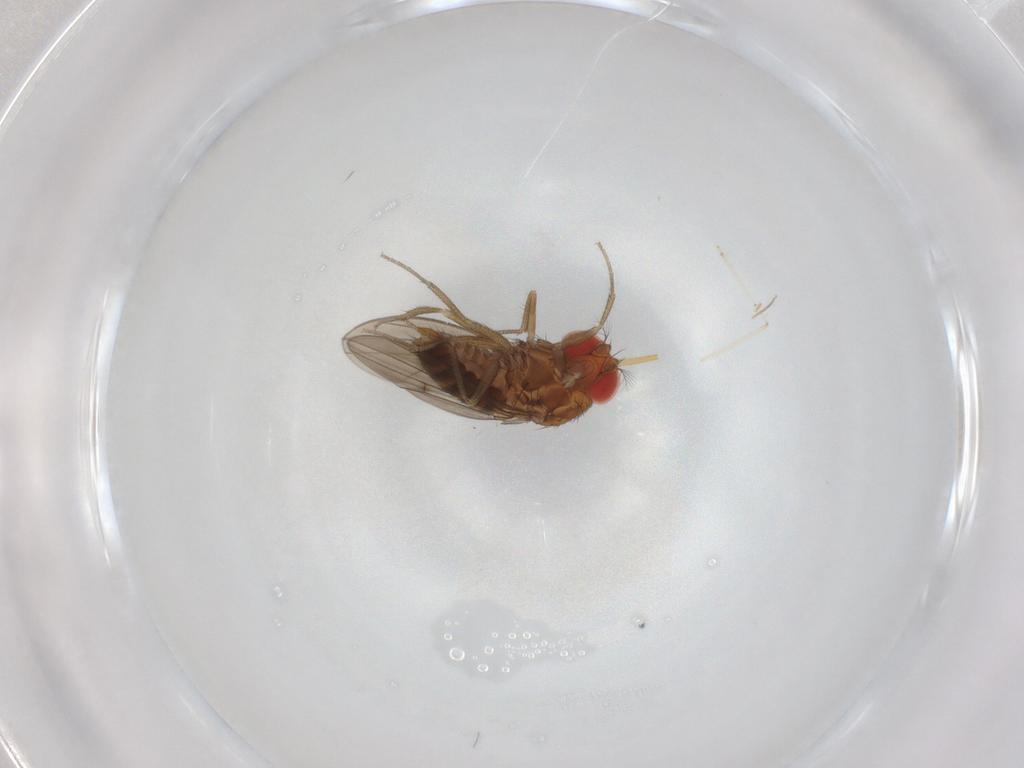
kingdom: Animalia
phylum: Arthropoda
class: Insecta
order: Diptera
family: Drosophilidae
